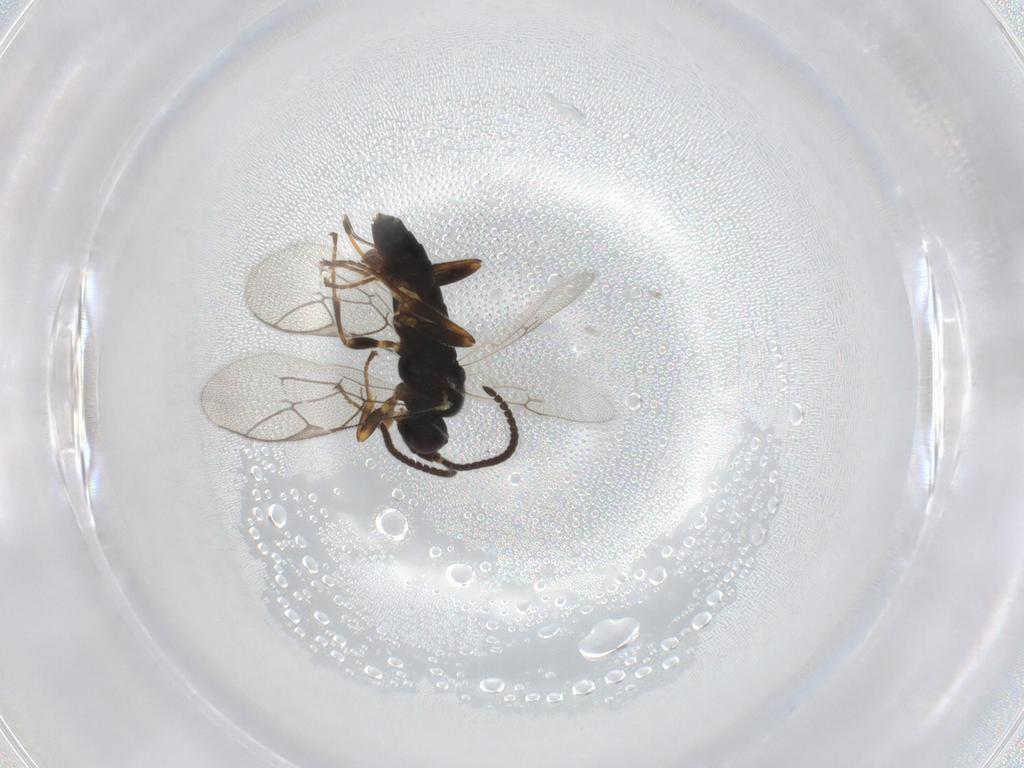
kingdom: Animalia
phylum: Arthropoda
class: Insecta
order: Hymenoptera
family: Ichneumonidae
